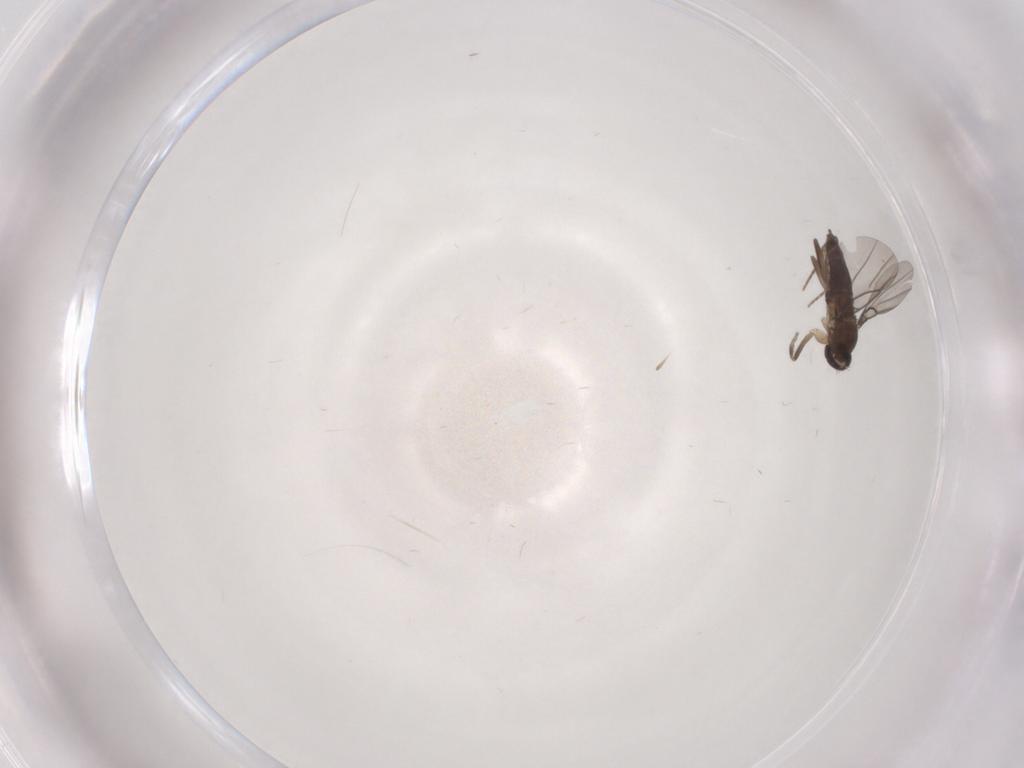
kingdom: Animalia
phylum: Arthropoda
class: Insecta
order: Diptera
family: Phoridae
